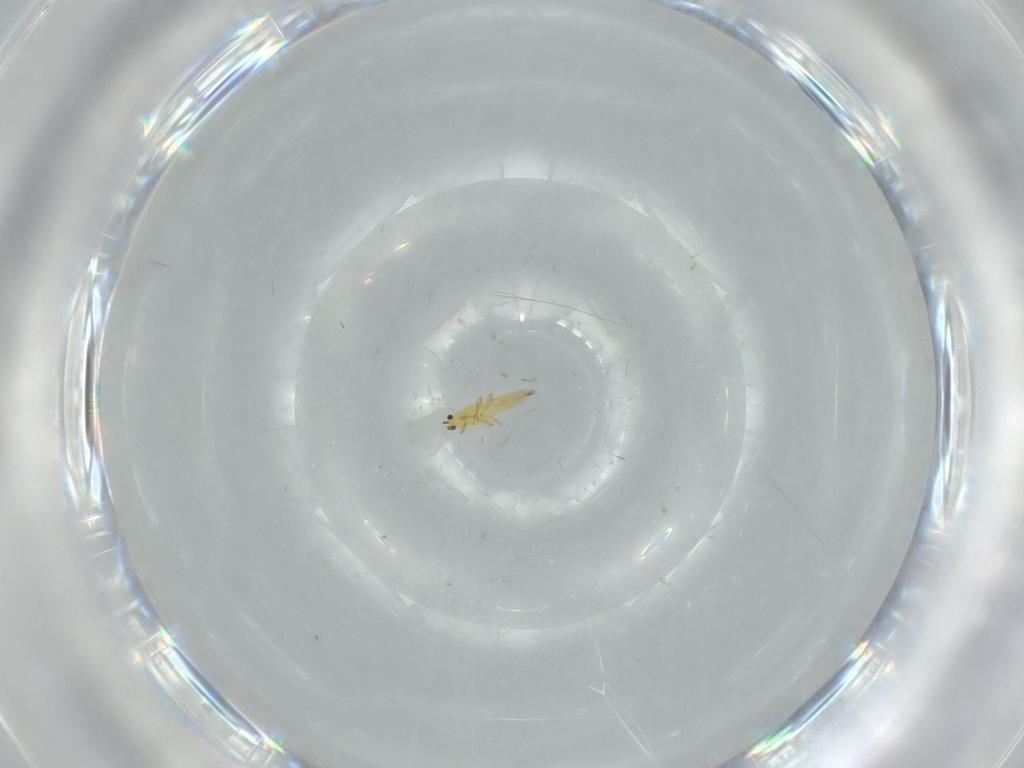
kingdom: Animalia
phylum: Arthropoda
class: Insecta
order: Thysanoptera
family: Thripidae
